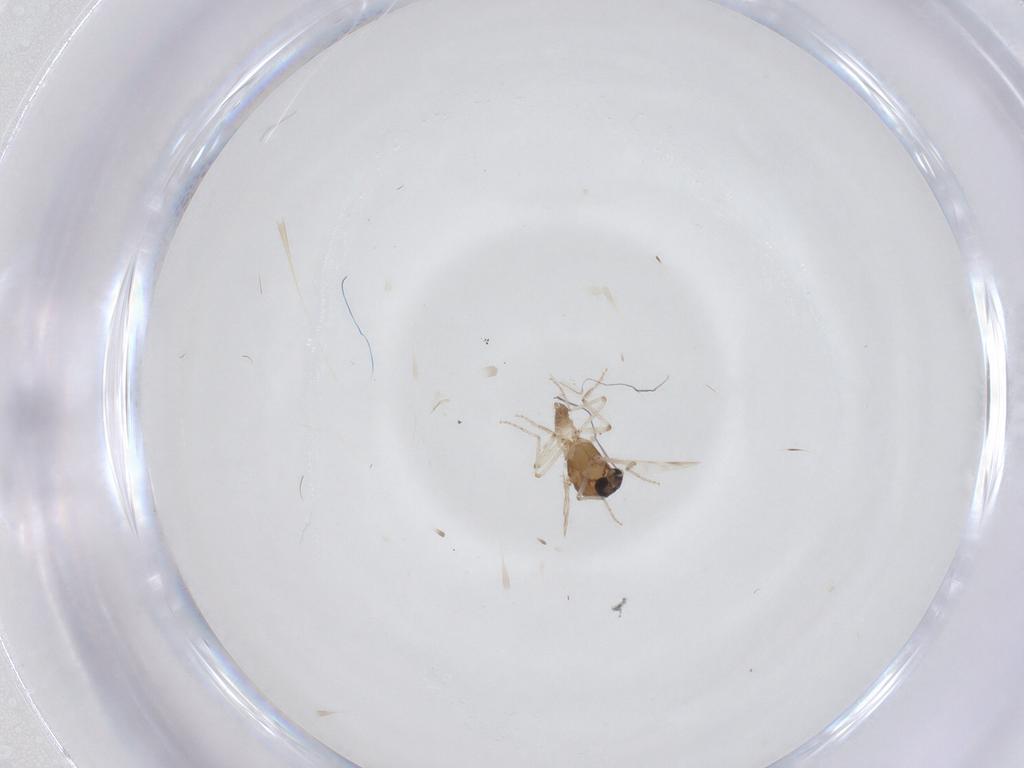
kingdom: Animalia
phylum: Arthropoda
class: Insecta
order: Diptera
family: Ceratopogonidae
